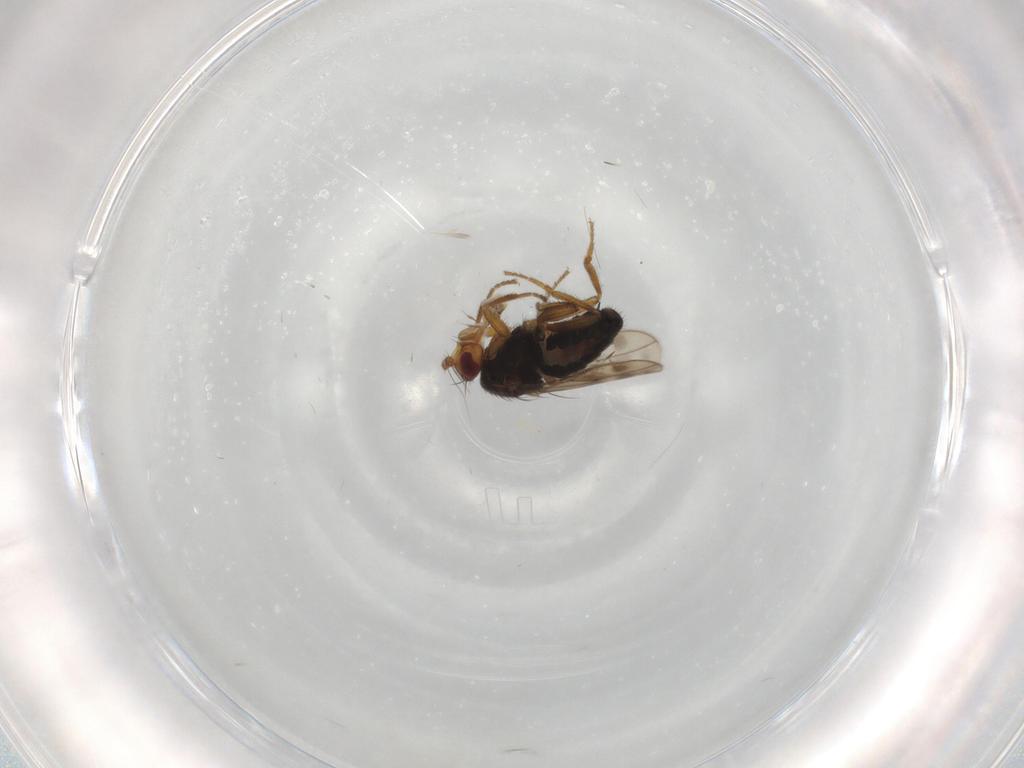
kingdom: Animalia
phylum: Arthropoda
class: Insecta
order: Diptera
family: Sphaeroceridae
